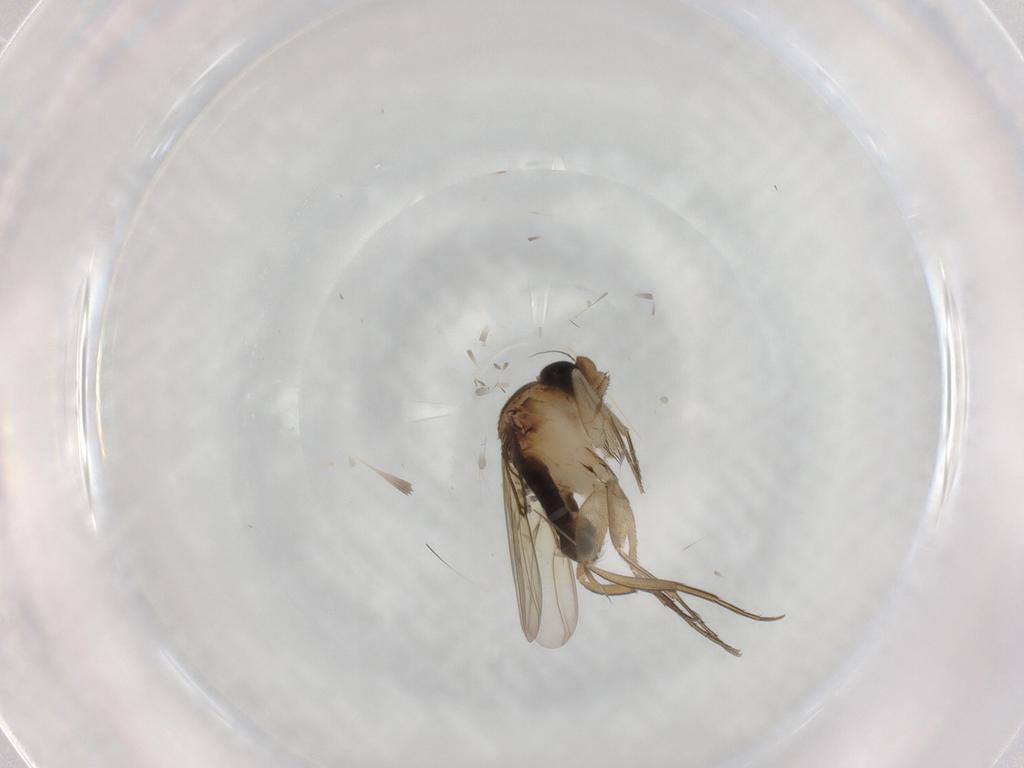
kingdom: Animalia
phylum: Arthropoda
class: Insecta
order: Diptera
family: Phoridae
